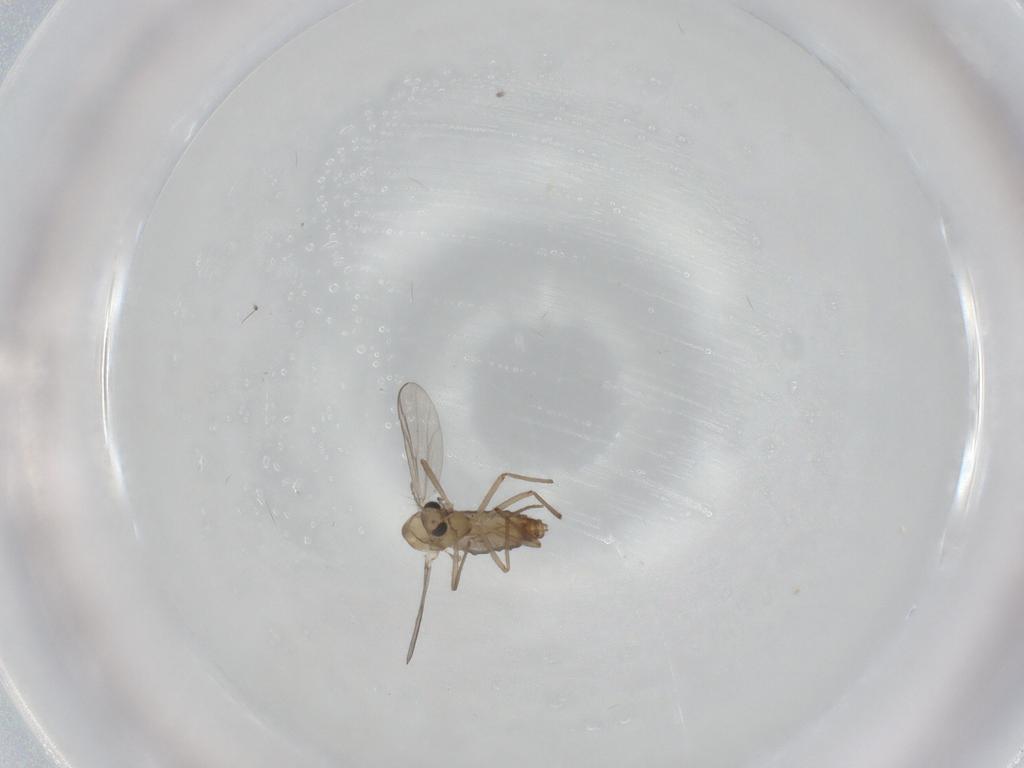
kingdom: Animalia
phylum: Arthropoda
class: Insecta
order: Diptera
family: Chironomidae
